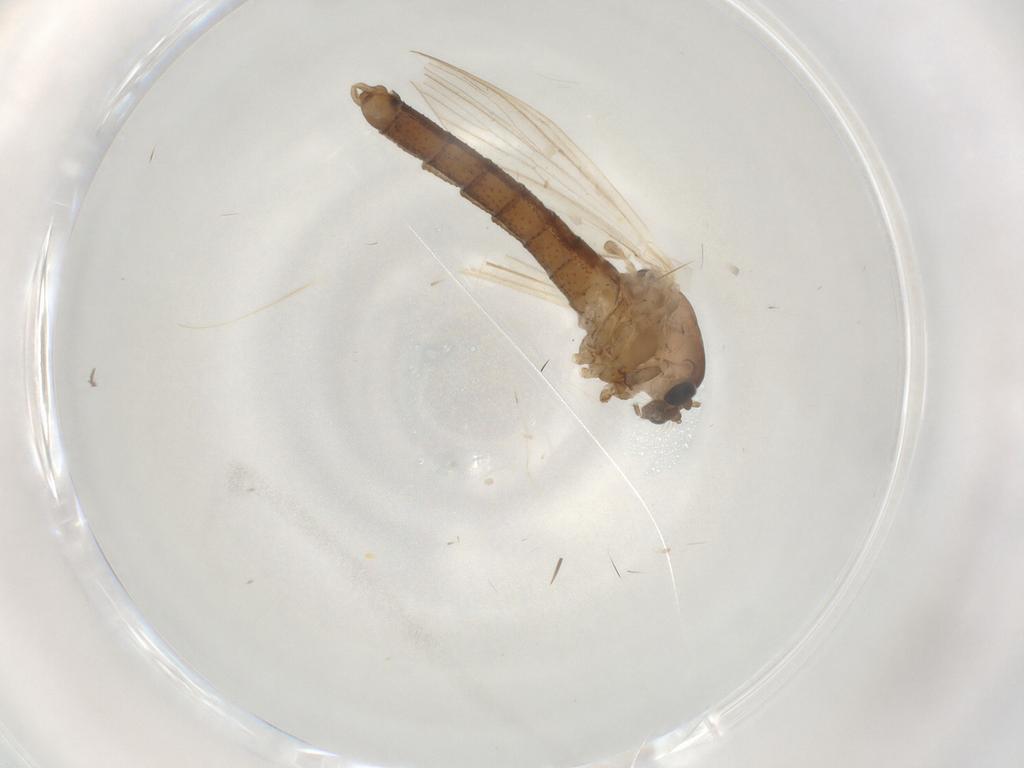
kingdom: Animalia
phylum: Arthropoda
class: Insecta
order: Diptera
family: Chaoboridae
